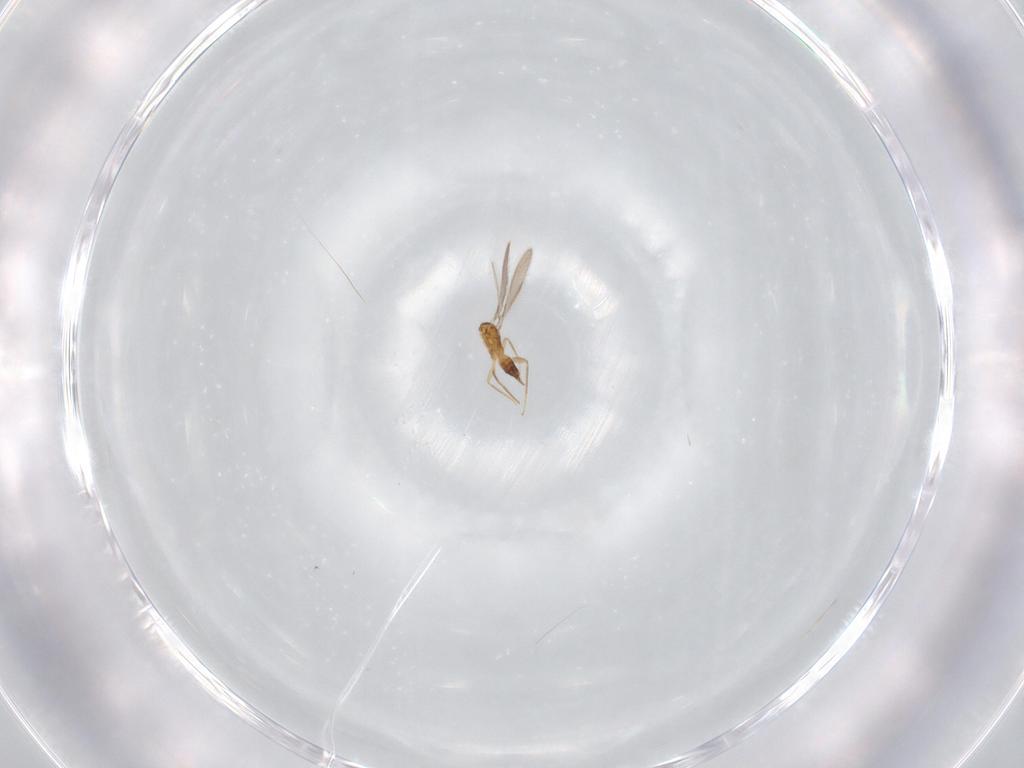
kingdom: Animalia
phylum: Arthropoda
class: Insecta
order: Hymenoptera
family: Mymaridae
